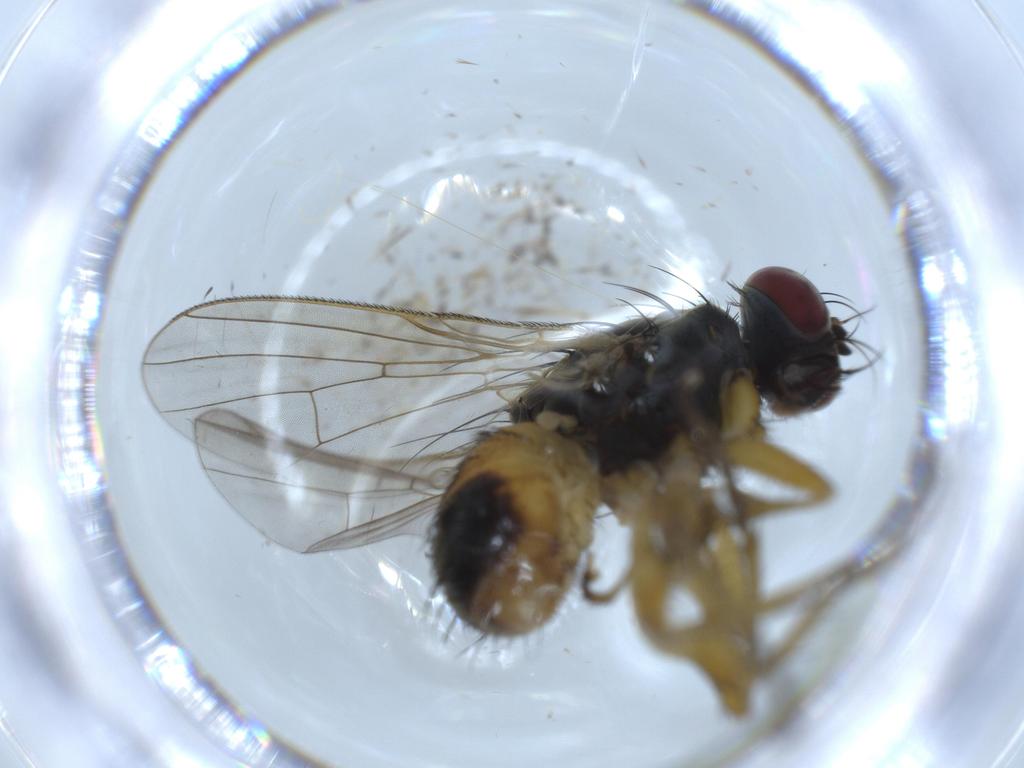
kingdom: Animalia
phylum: Arthropoda
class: Insecta
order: Diptera
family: Muscidae
